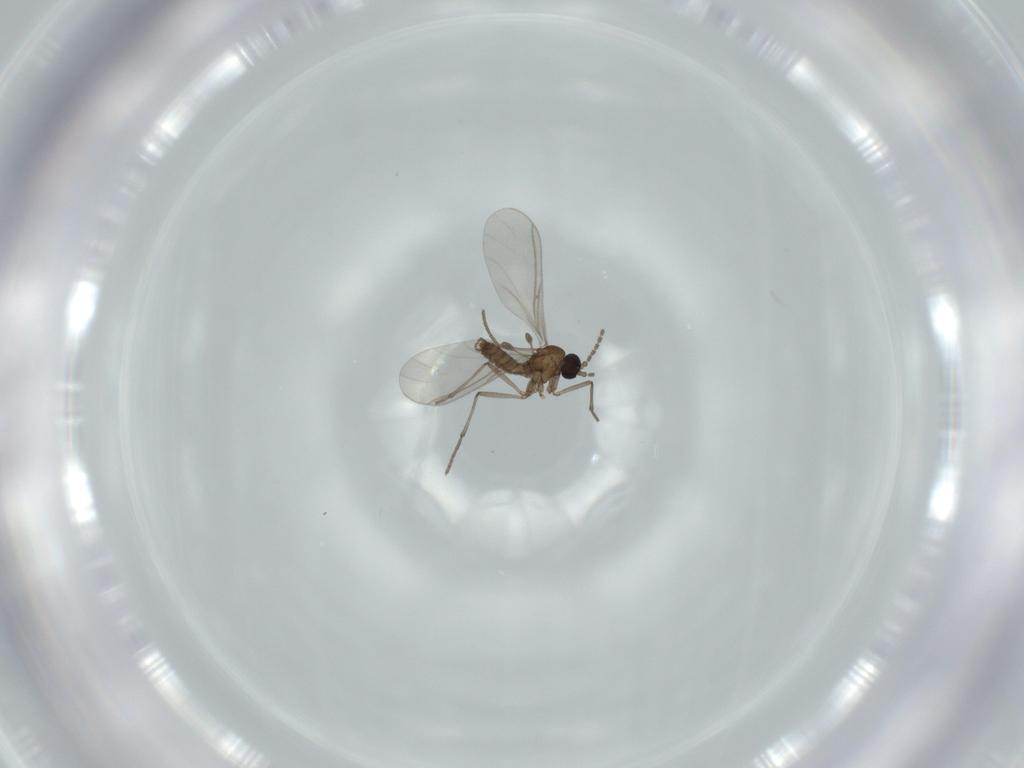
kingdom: Animalia
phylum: Arthropoda
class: Insecta
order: Diptera
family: Sciaridae
